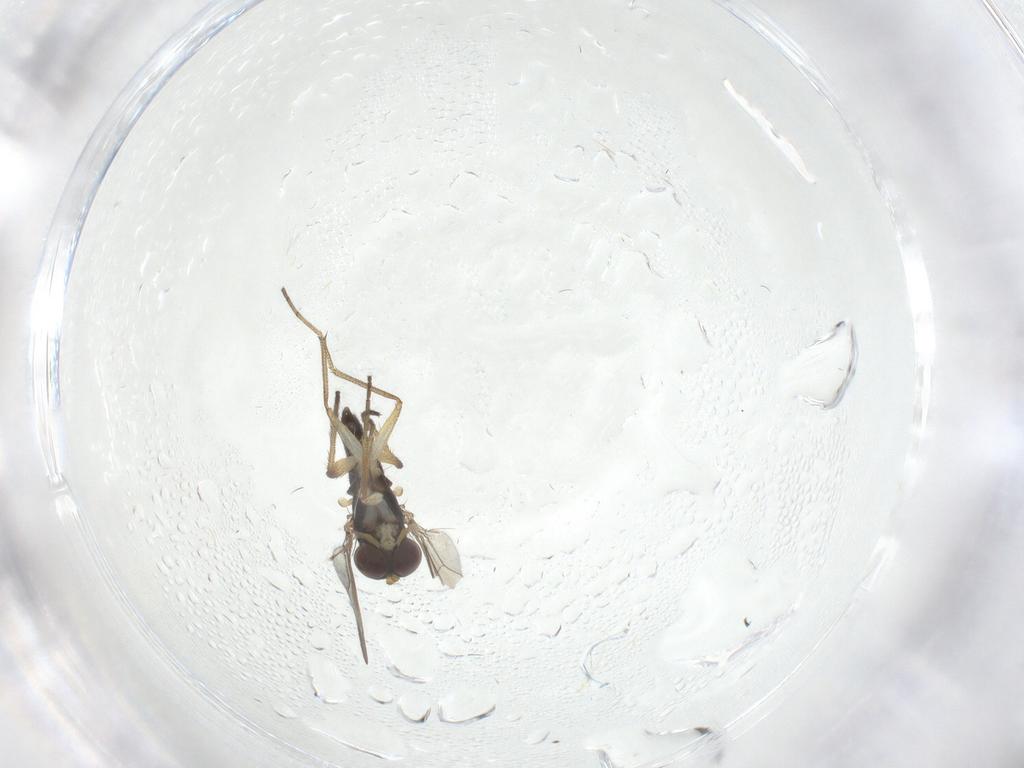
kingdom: Animalia
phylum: Arthropoda
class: Insecta
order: Diptera
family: Dolichopodidae
